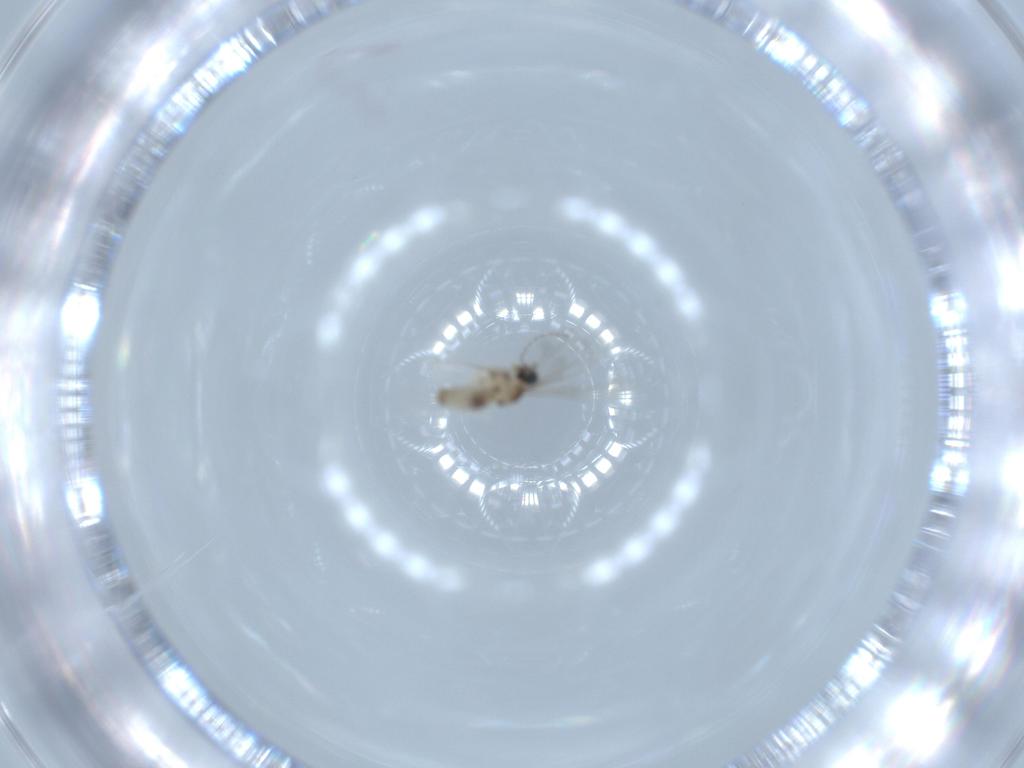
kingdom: Animalia
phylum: Arthropoda
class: Insecta
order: Diptera
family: Cecidomyiidae
